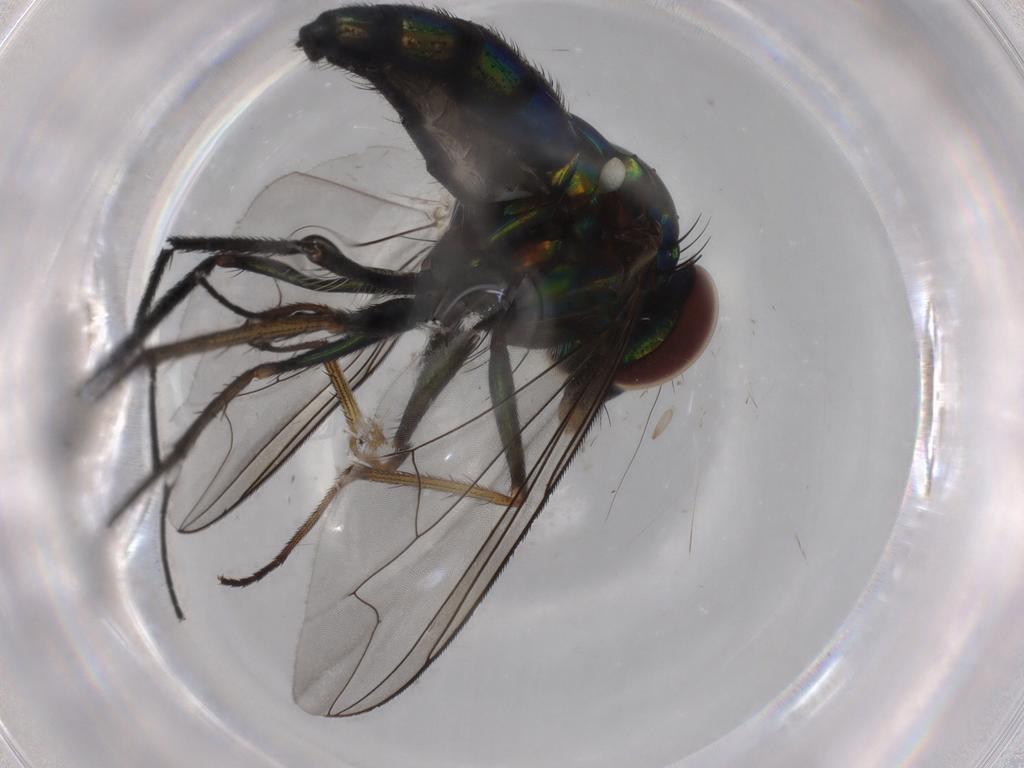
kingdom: Animalia
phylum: Arthropoda
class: Insecta
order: Diptera
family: Dolichopodidae
